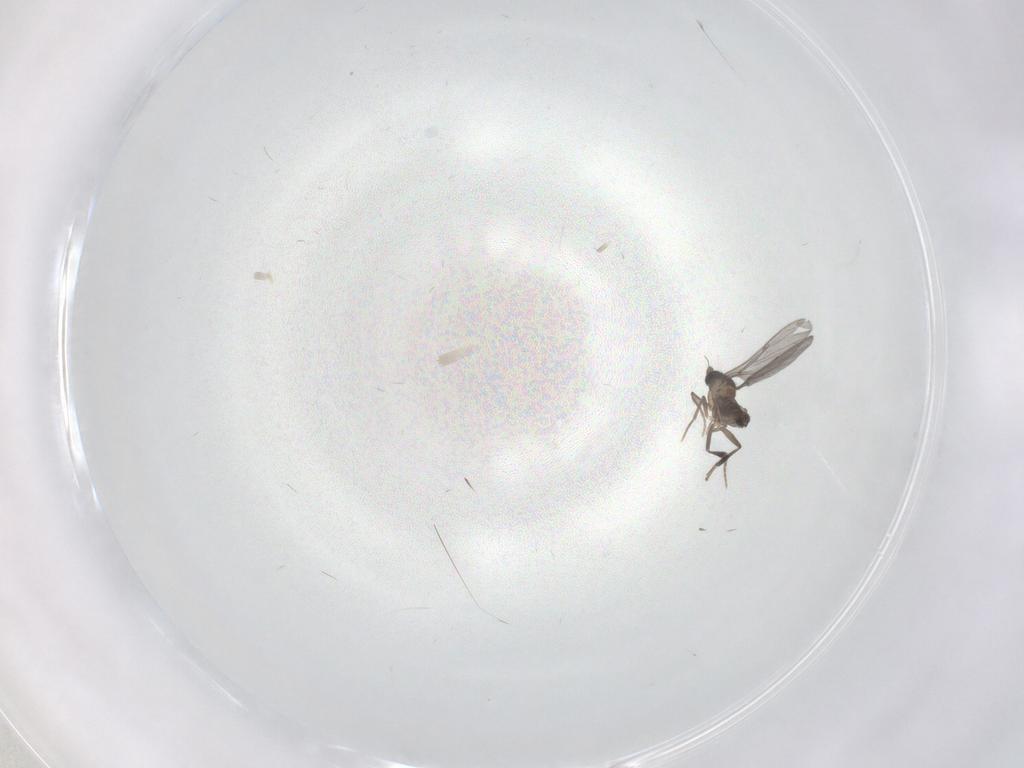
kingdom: Animalia
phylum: Arthropoda
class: Insecta
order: Diptera
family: Phoridae
